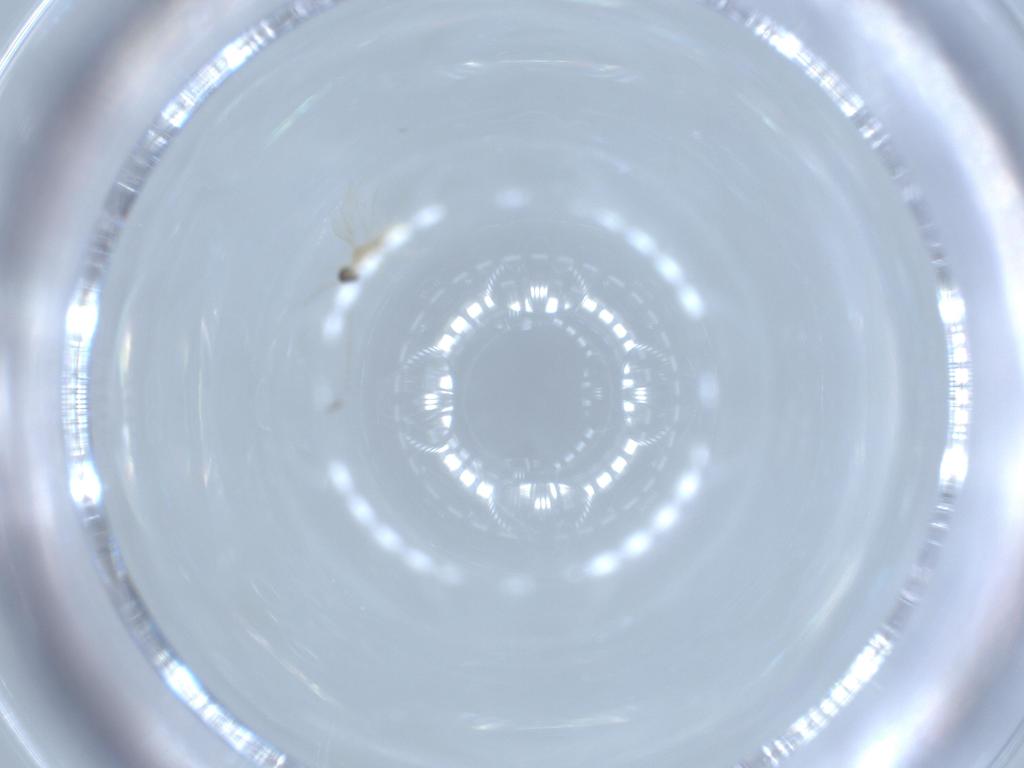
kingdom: Animalia
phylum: Arthropoda
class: Insecta
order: Diptera
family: Cecidomyiidae
